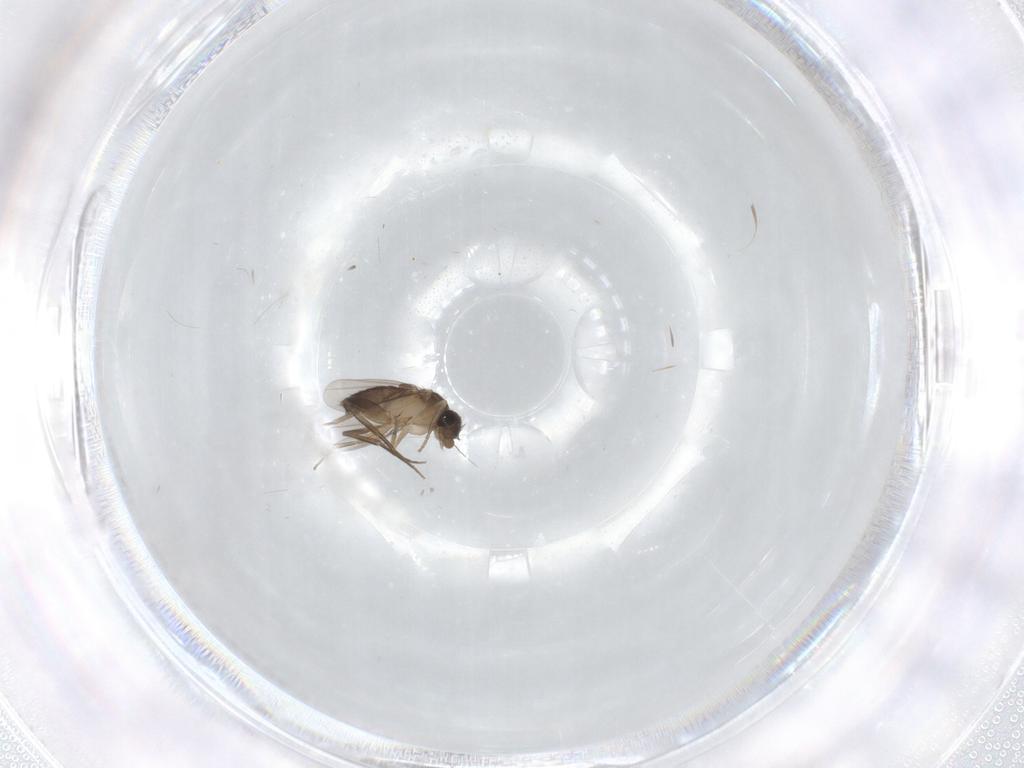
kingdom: Animalia
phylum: Arthropoda
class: Insecta
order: Diptera
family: Phoridae
